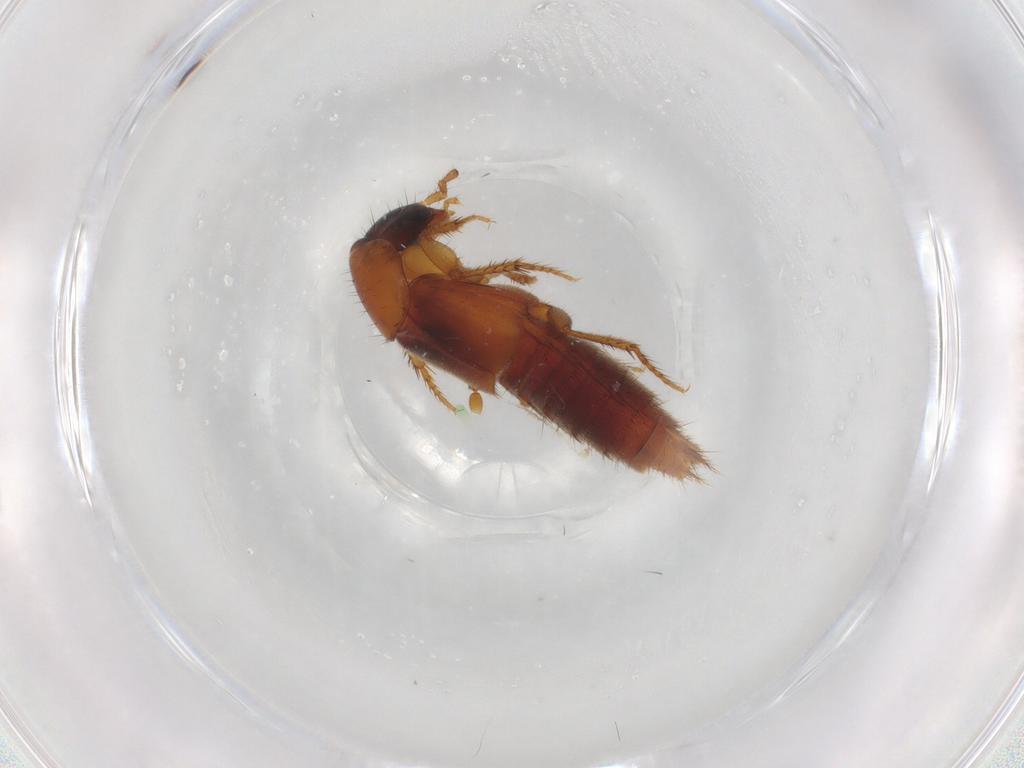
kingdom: Animalia
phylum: Arthropoda
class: Insecta
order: Coleoptera
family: Staphylinidae
